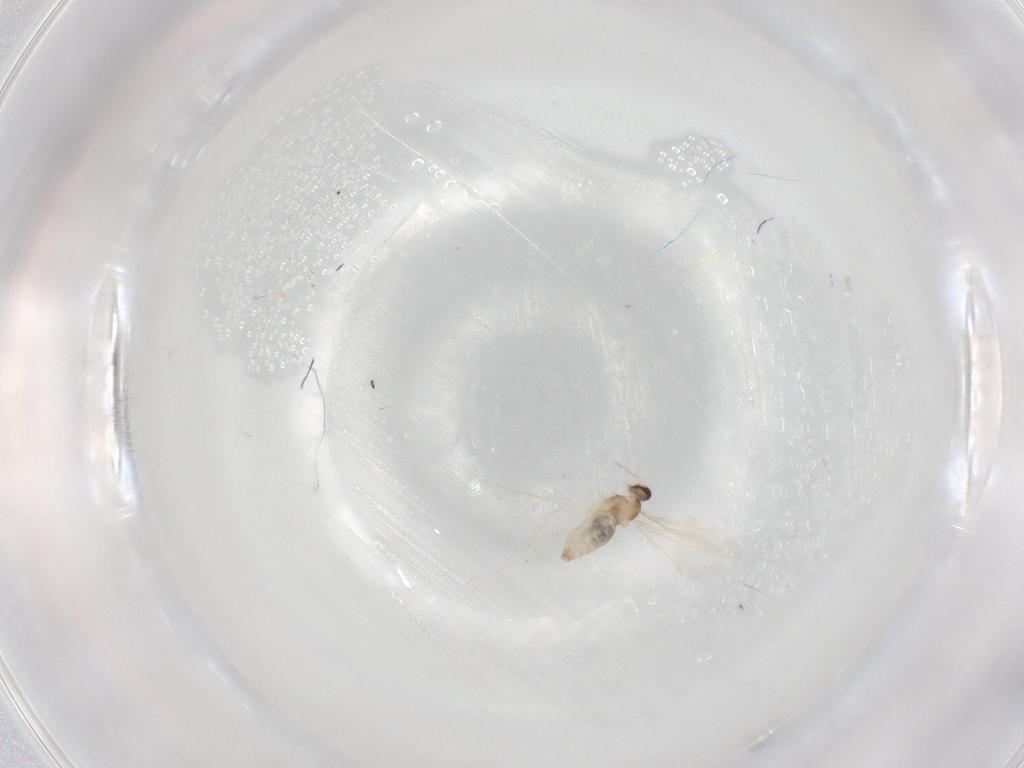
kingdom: Animalia
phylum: Arthropoda
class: Insecta
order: Diptera
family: Cecidomyiidae
